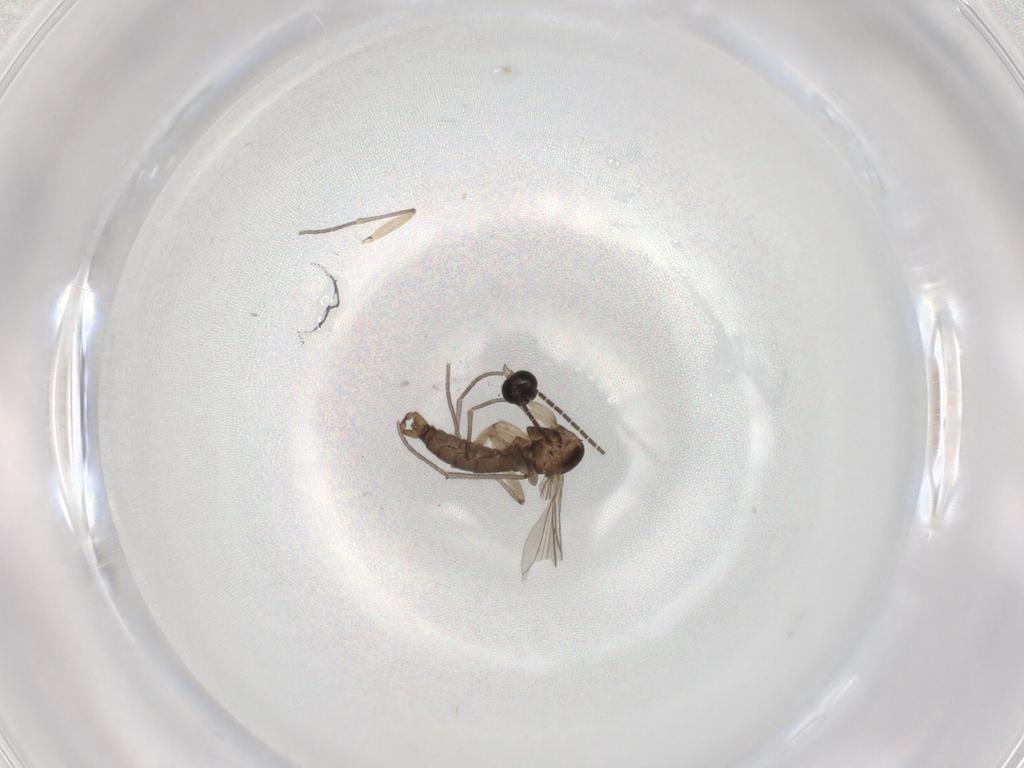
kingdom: Animalia
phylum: Arthropoda
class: Insecta
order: Diptera
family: Sciaridae
